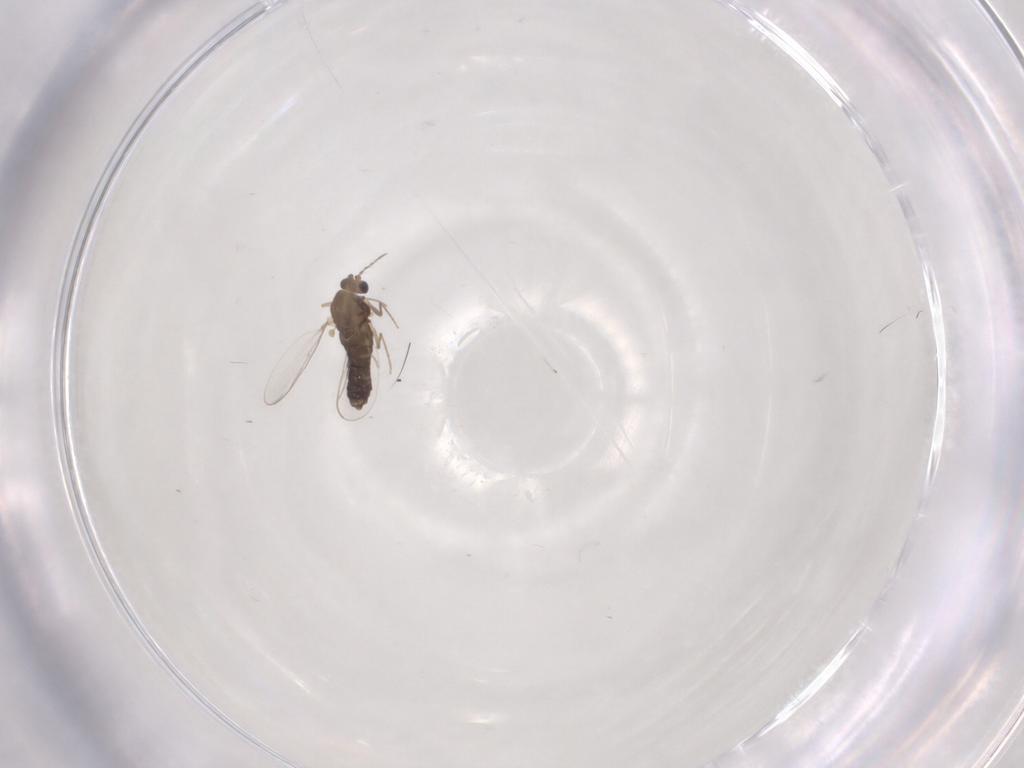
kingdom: Animalia
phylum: Arthropoda
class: Insecta
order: Diptera
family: Chironomidae
